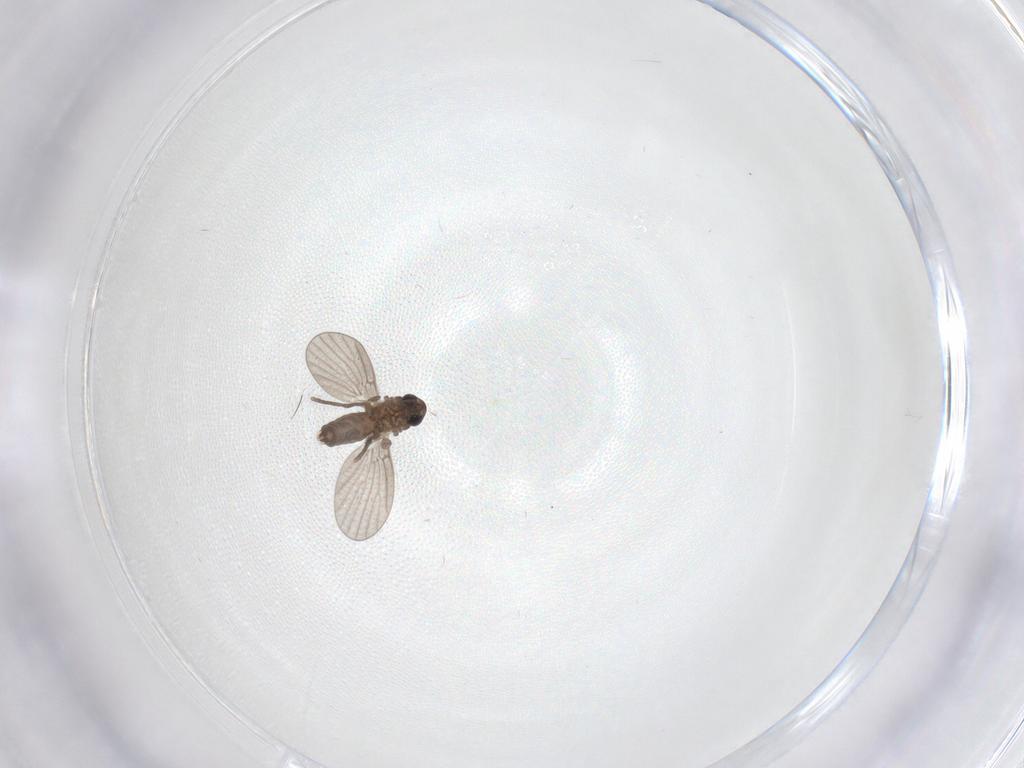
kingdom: Animalia
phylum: Arthropoda
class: Insecta
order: Diptera
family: Psychodidae
